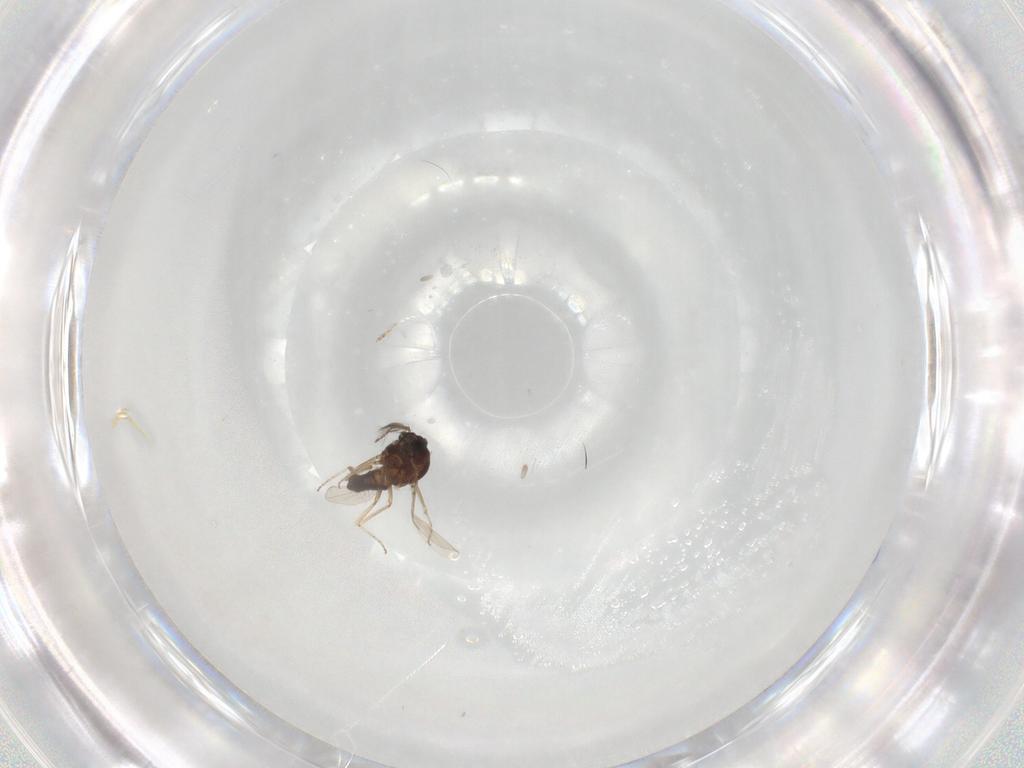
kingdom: Animalia
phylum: Arthropoda
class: Insecta
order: Diptera
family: Ceratopogonidae
